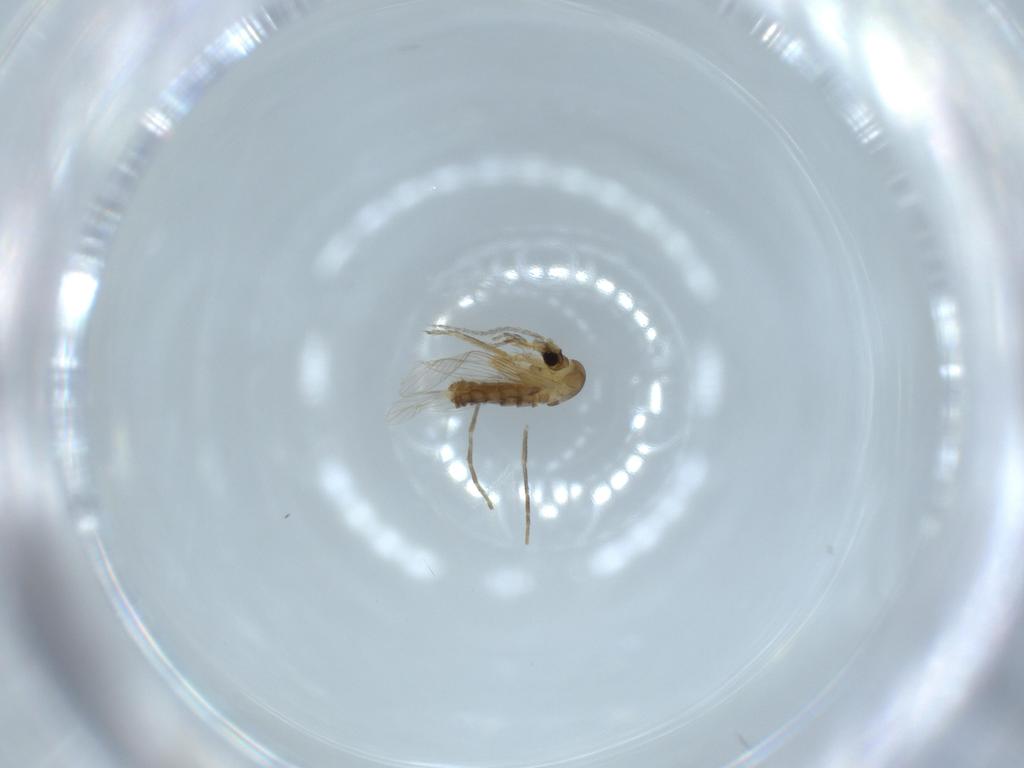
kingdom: Animalia
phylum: Arthropoda
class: Insecta
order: Diptera
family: Psychodidae
